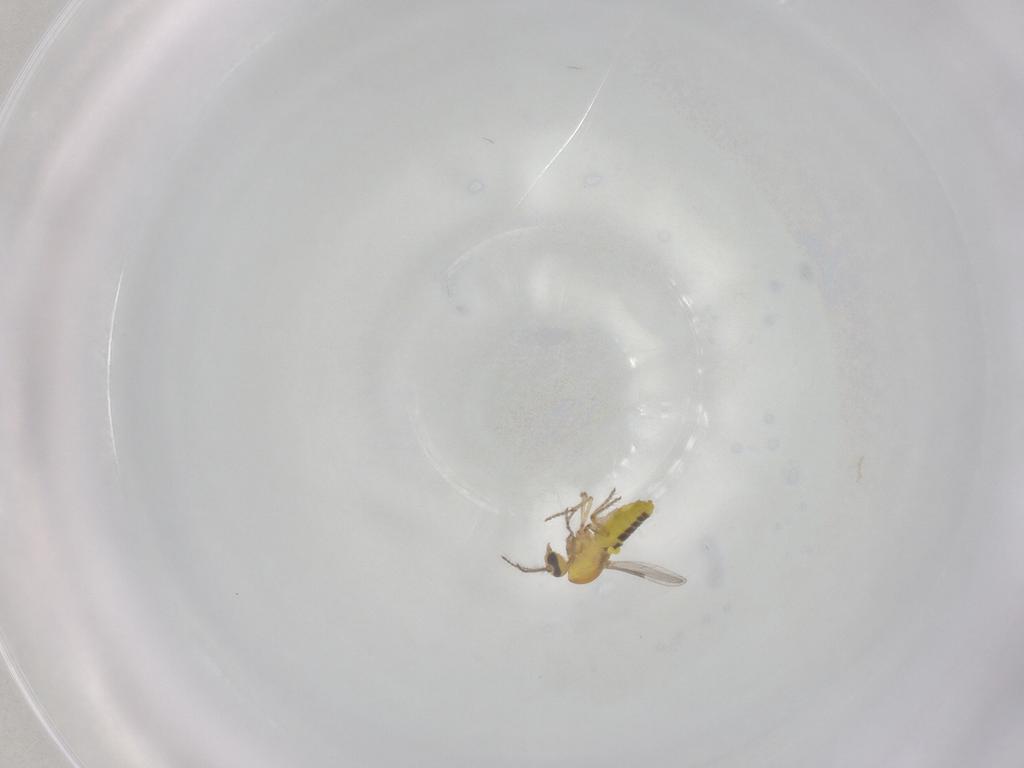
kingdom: Animalia
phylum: Arthropoda
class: Insecta
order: Diptera
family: Ceratopogonidae
